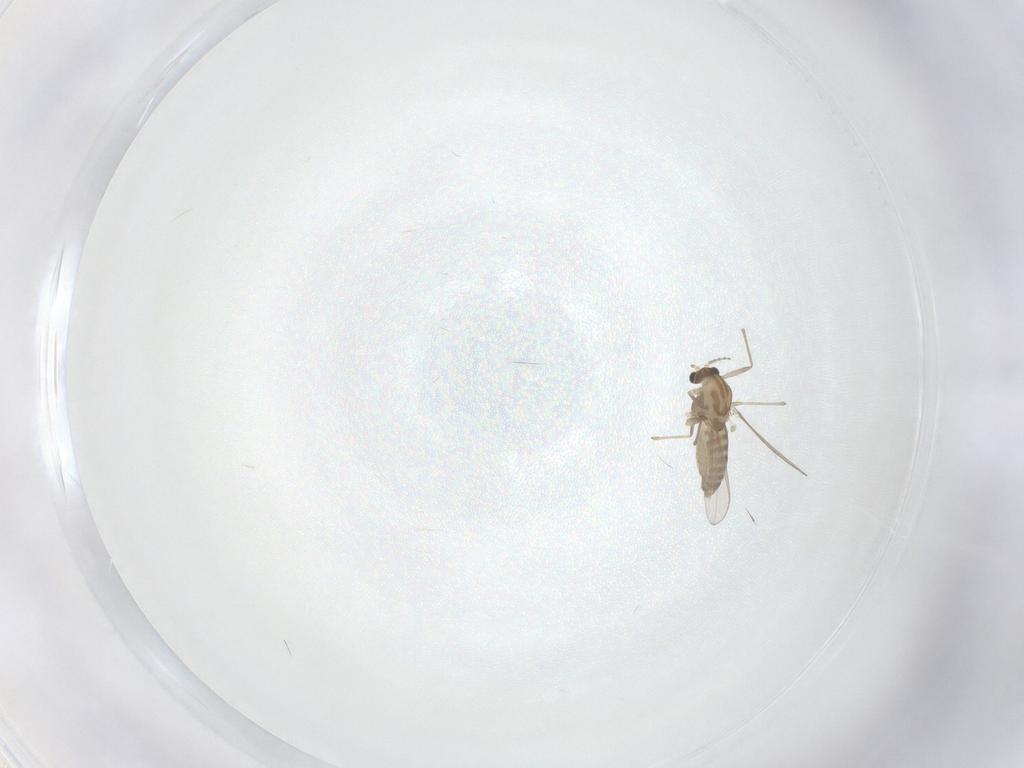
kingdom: Animalia
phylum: Arthropoda
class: Insecta
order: Diptera
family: Chironomidae
